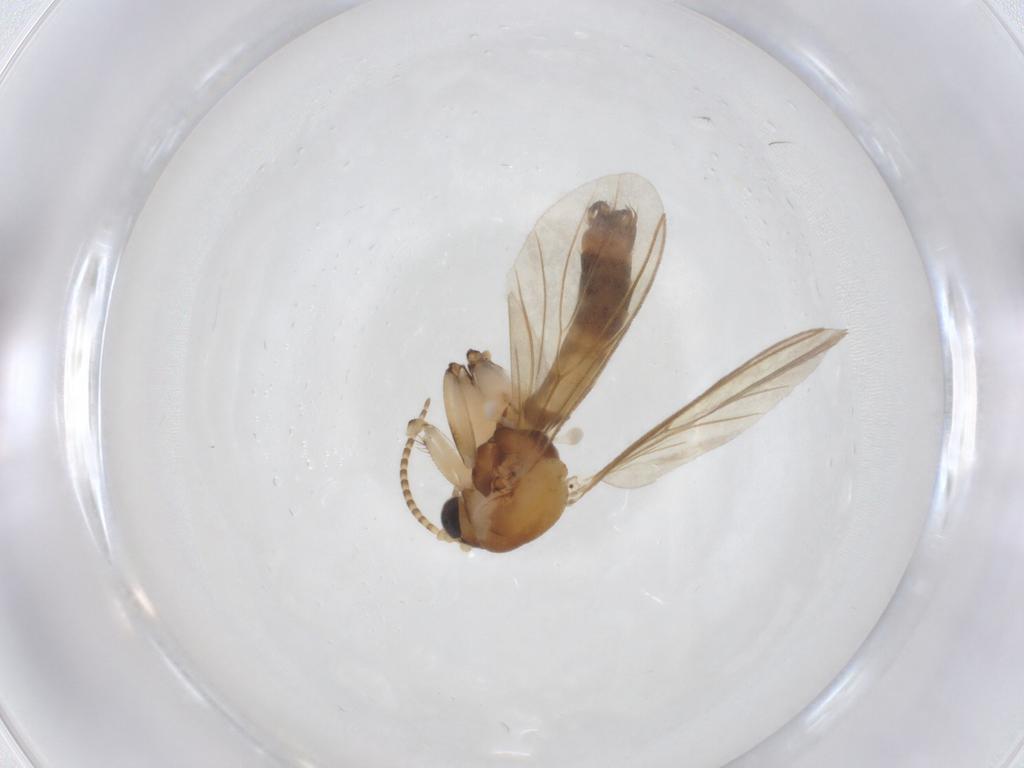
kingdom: Animalia
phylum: Arthropoda
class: Insecta
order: Diptera
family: Mycetophilidae
